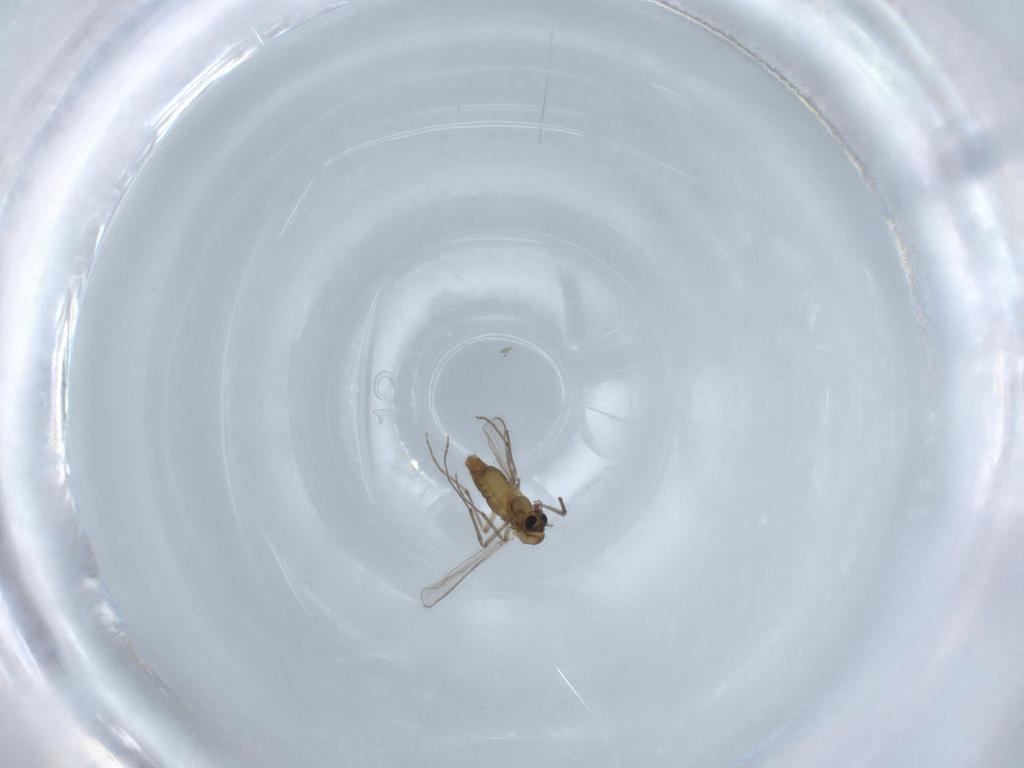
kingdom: Animalia
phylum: Arthropoda
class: Insecta
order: Diptera
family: Chironomidae
